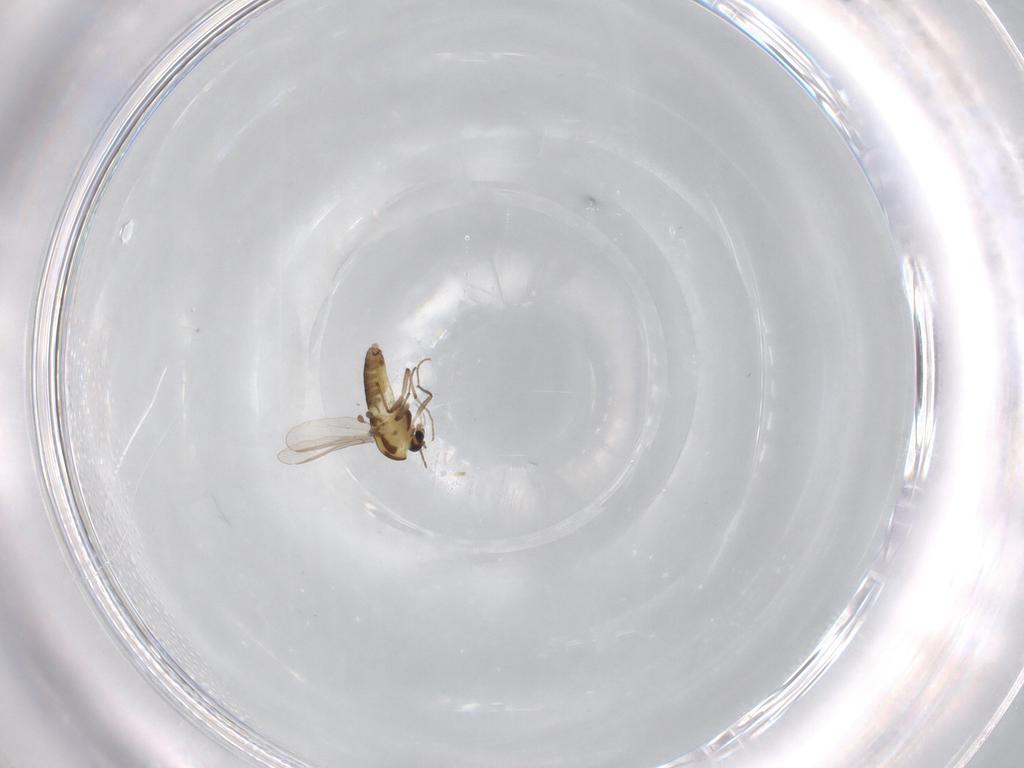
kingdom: Animalia
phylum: Arthropoda
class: Insecta
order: Diptera
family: Chironomidae
